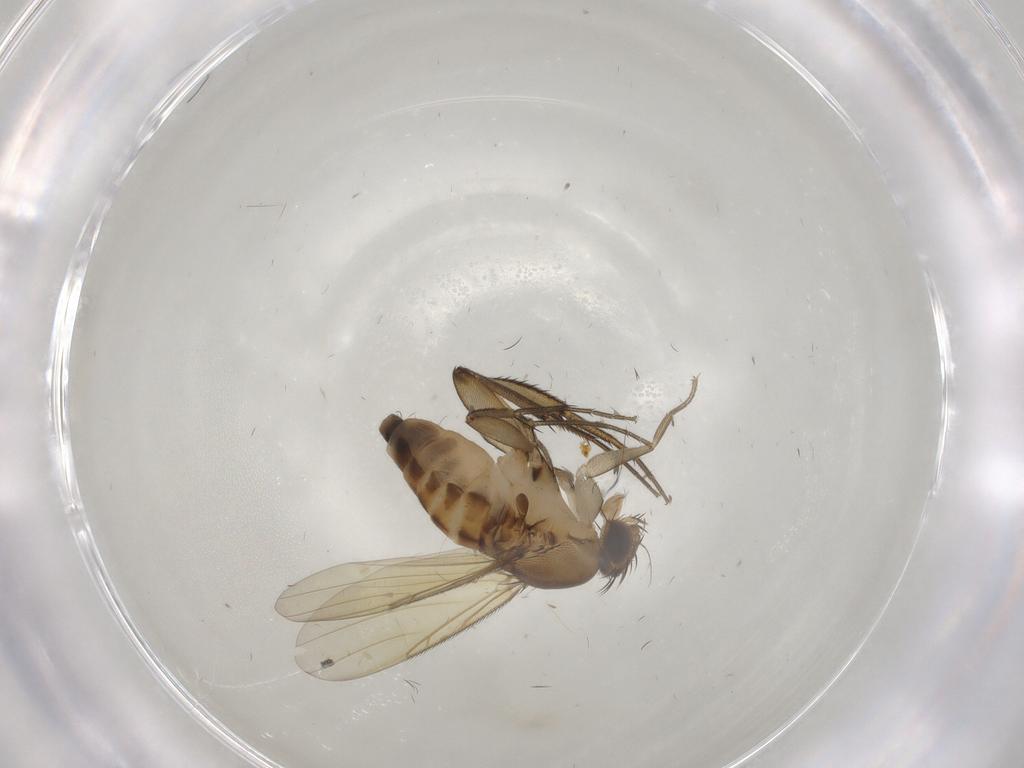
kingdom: Animalia
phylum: Arthropoda
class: Insecta
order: Diptera
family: Phoridae
